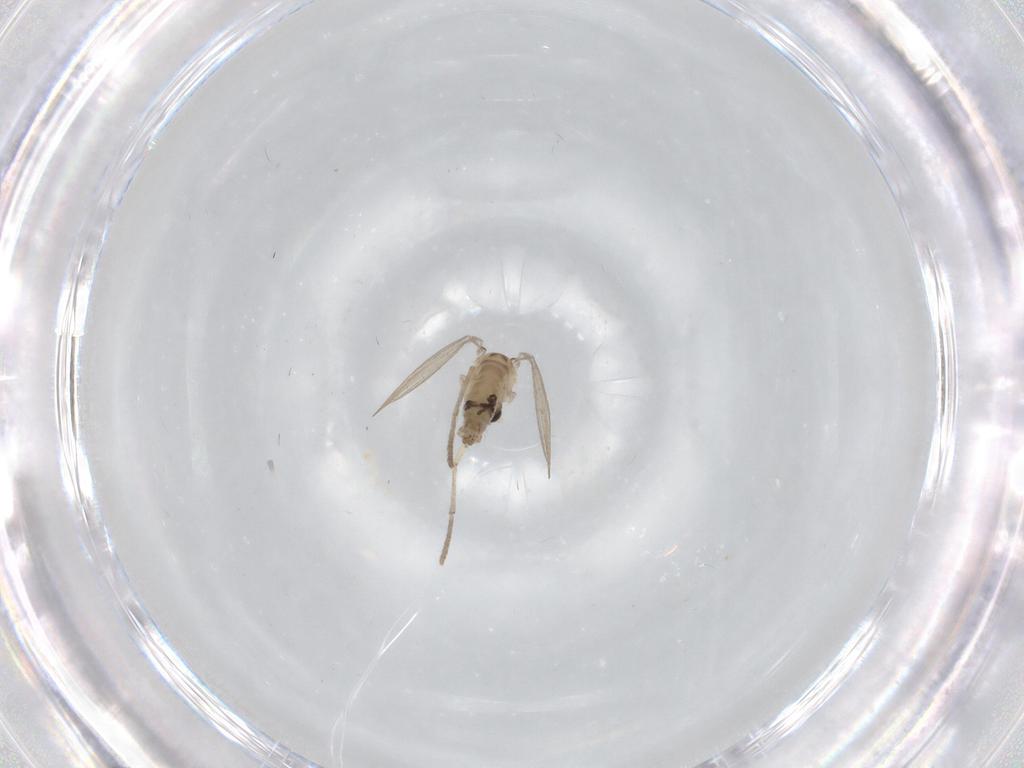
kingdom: Animalia
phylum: Arthropoda
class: Insecta
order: Diptera
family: Psychodidae
